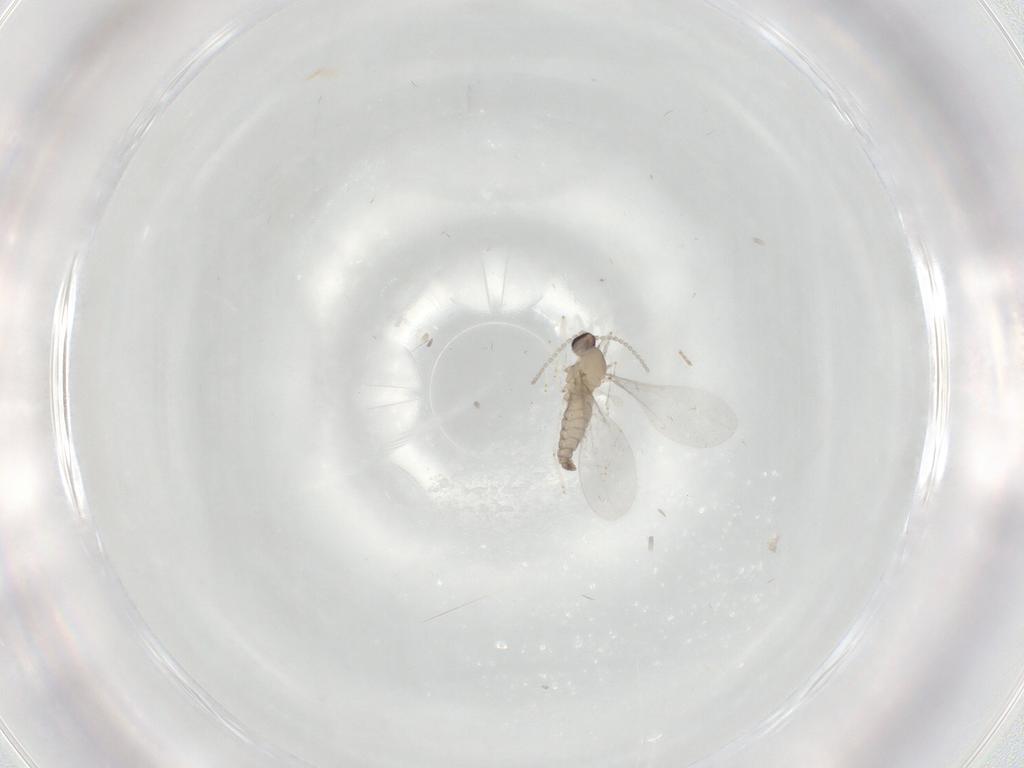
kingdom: Animalia
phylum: Arthropoda
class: Insecta
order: Diptera
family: Cecidomyiidae
